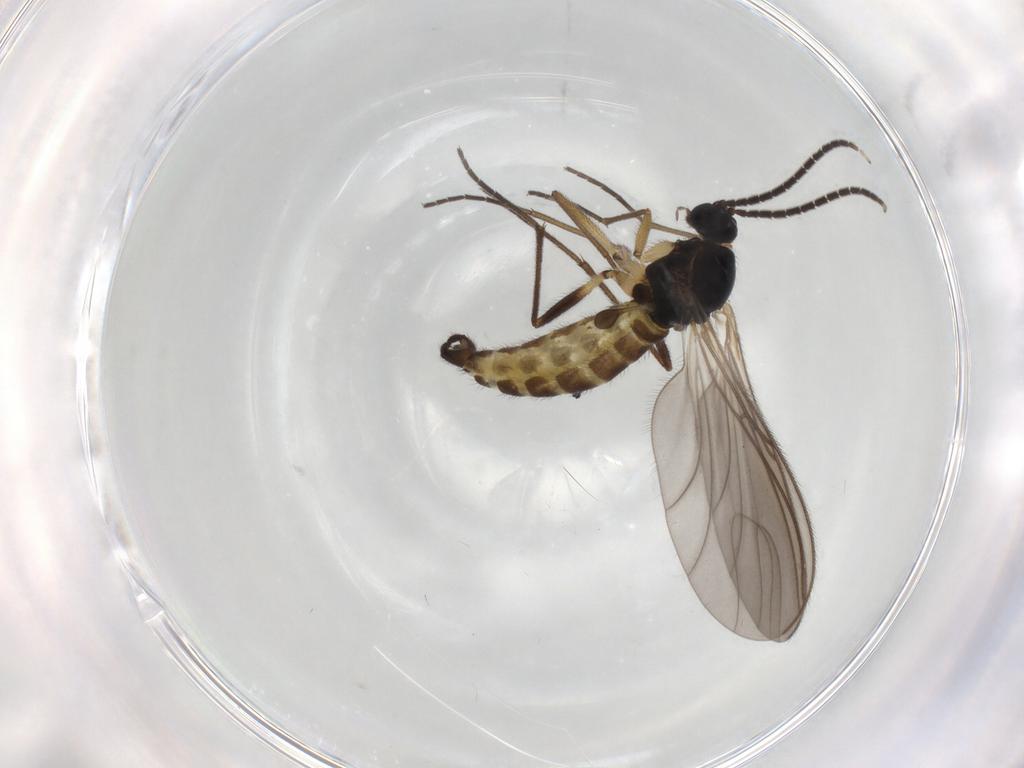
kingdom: Animalia
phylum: Arthropoda
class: Insecta
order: Diptera
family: Sciaridae
